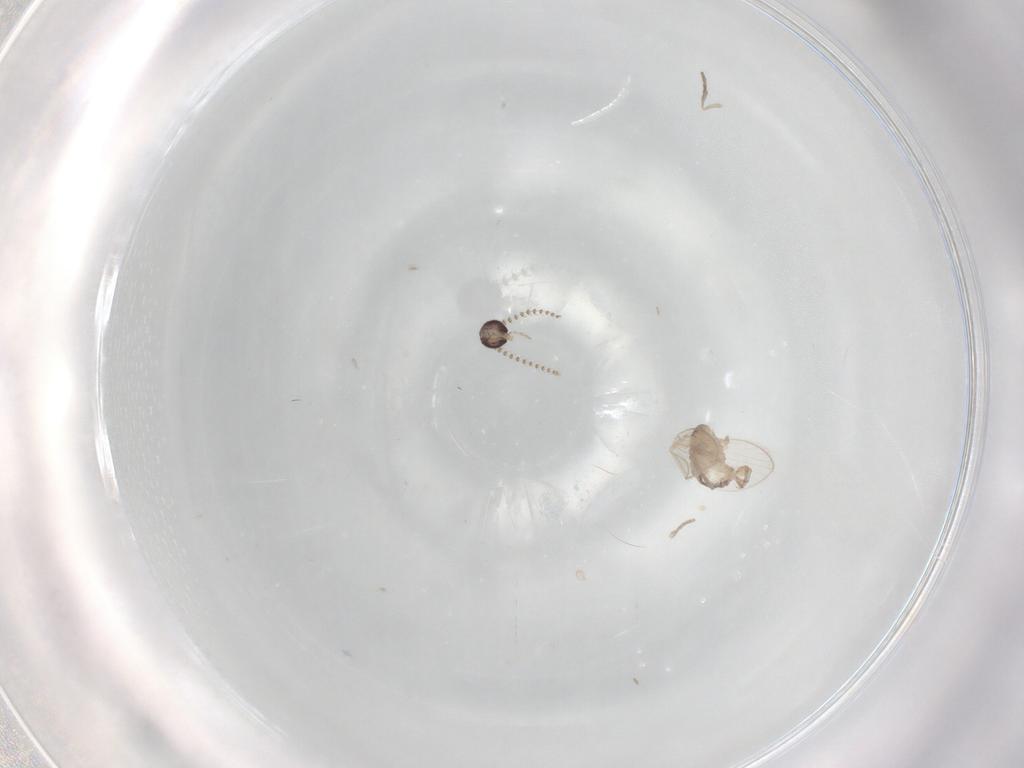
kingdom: Animalia
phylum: Arthropoda
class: Insecta
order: Diptera
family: Psychodidae
